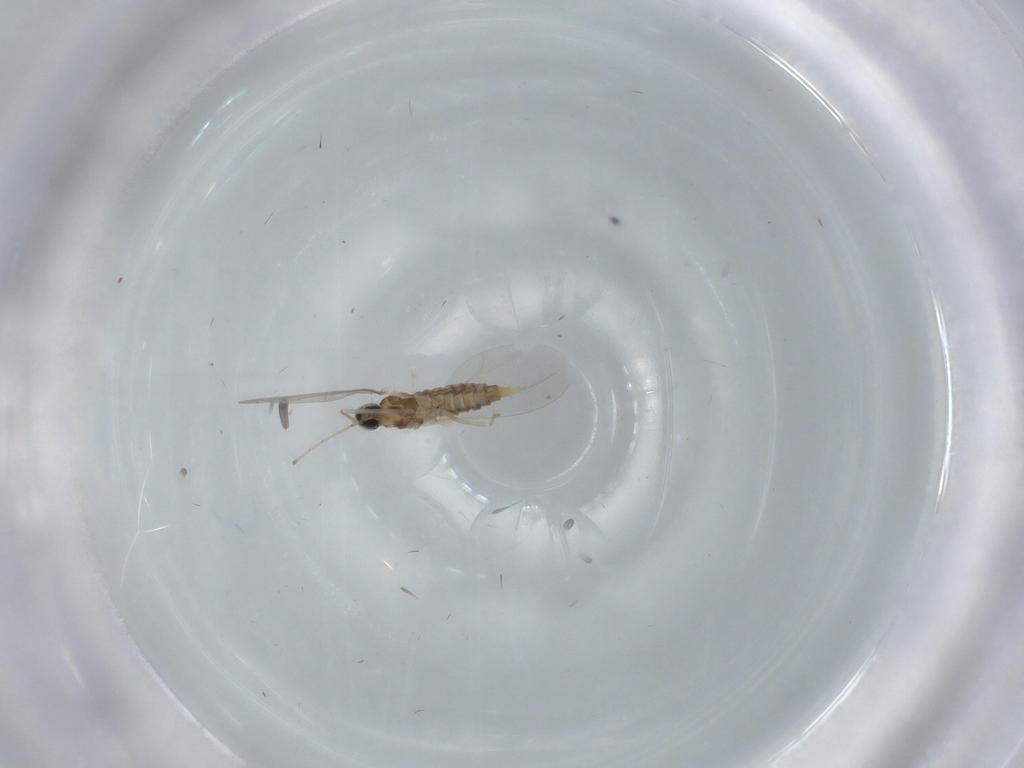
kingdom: Animalia
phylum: Arthropoda
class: Insecta
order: Diptera
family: Cecidomyiidae
